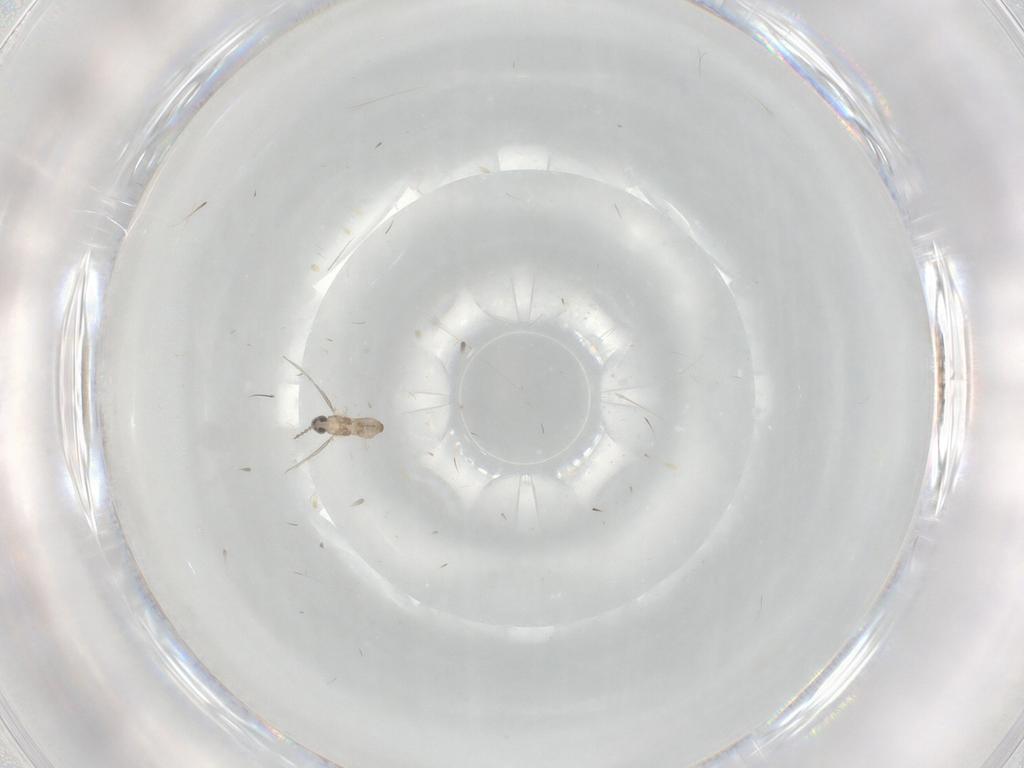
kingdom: Animalia
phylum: Arthropoda
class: Insecta
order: Diptera
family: Cecidomyiidae
